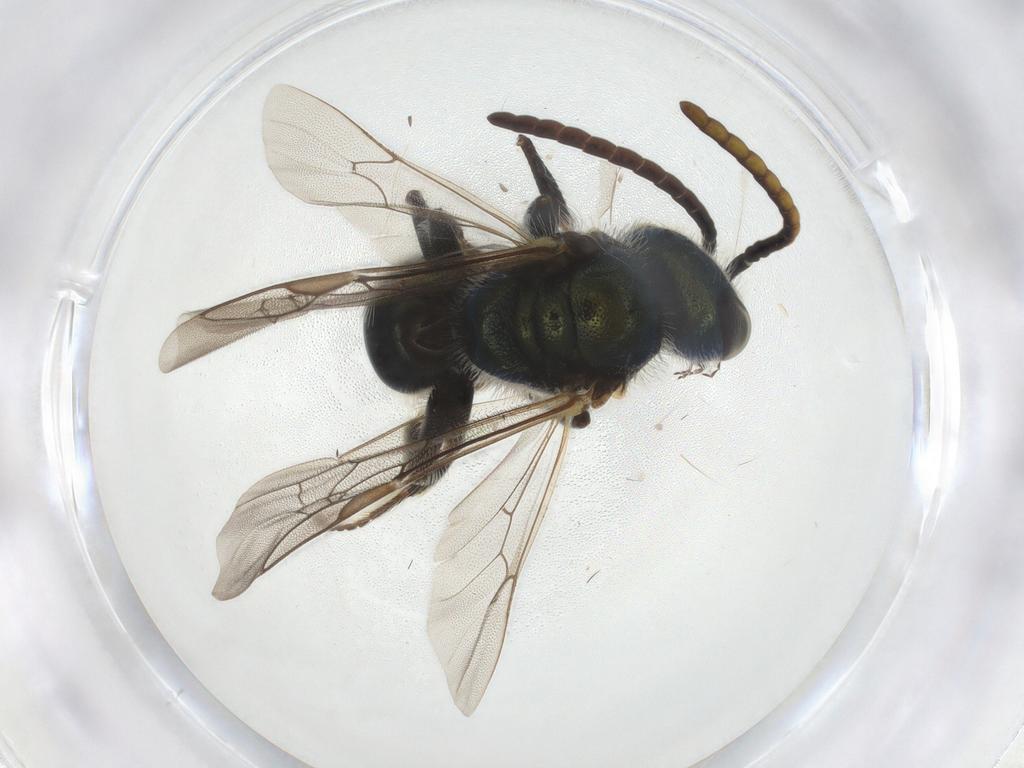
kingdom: Animalia
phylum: Arthropoda
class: Insecta
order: Hymenoptera
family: Halictidae
